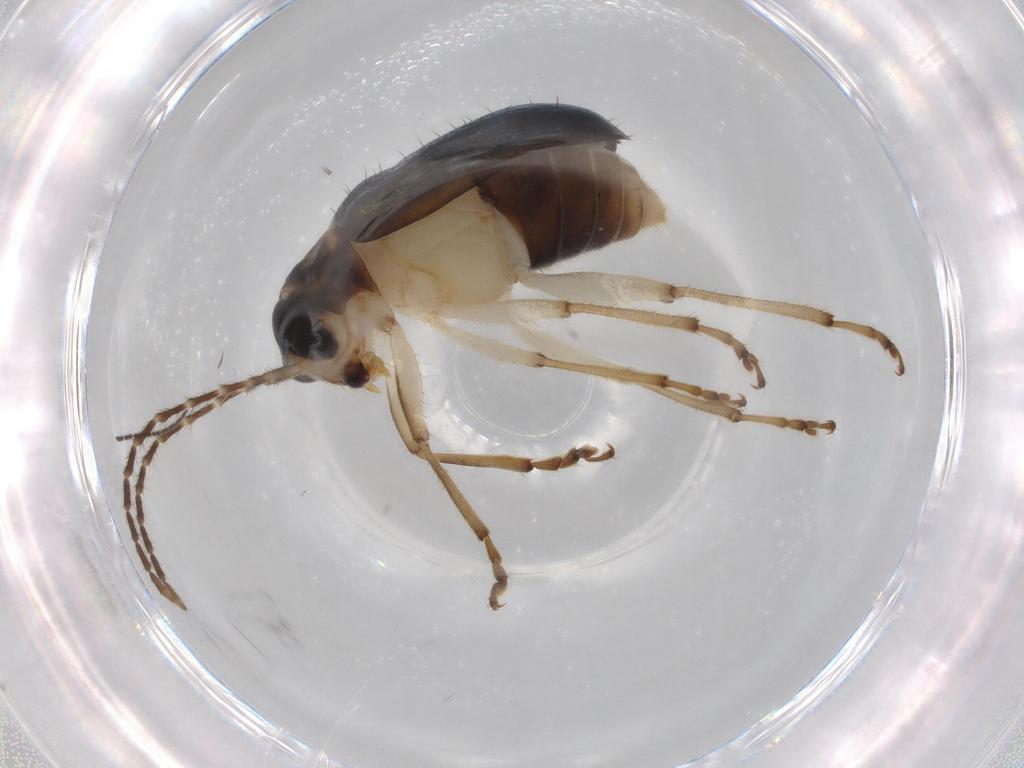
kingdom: Animalia
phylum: Arthropoda
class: Insecta
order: Coleoptera
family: Chrysomelidae
